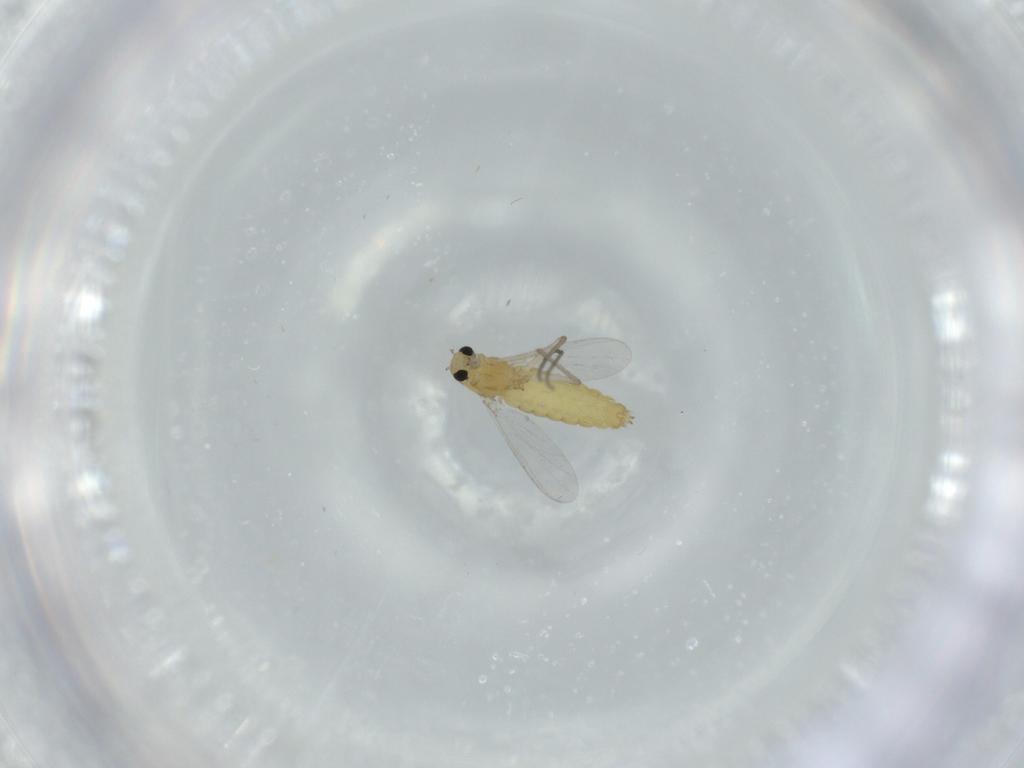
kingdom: Animalia
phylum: Arthropoda
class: Insecta
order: Diptera
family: Chironomidae
